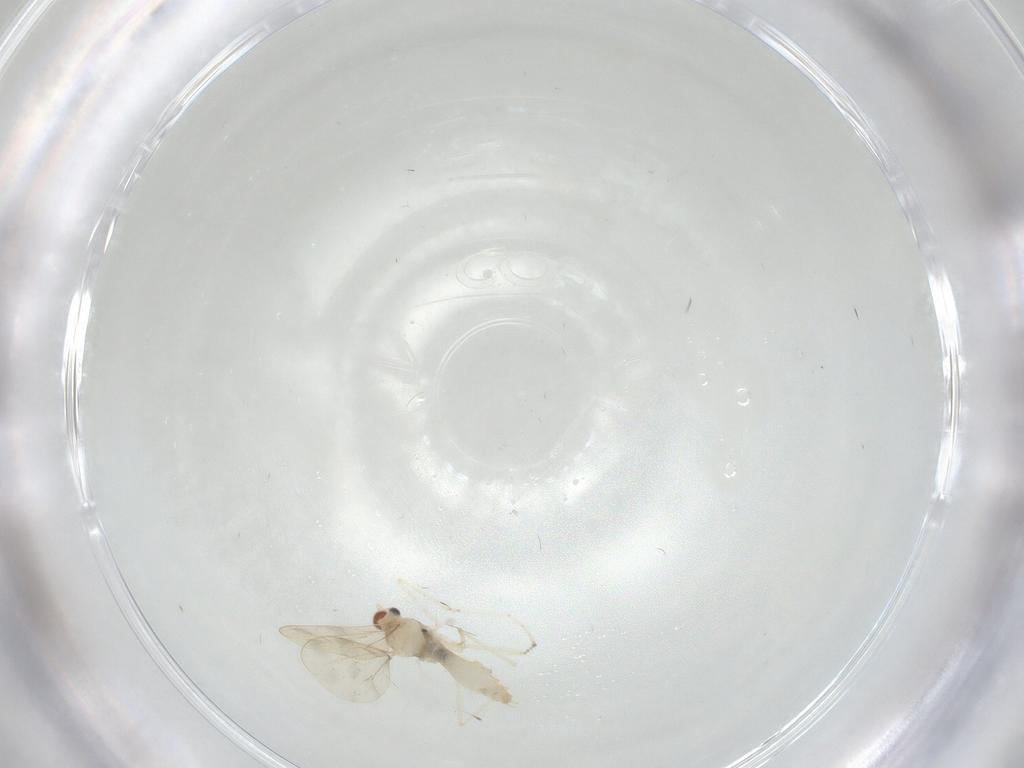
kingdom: Animalia
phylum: Arthropoda
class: Insecta
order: Diptera
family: Cecidomyiidae
